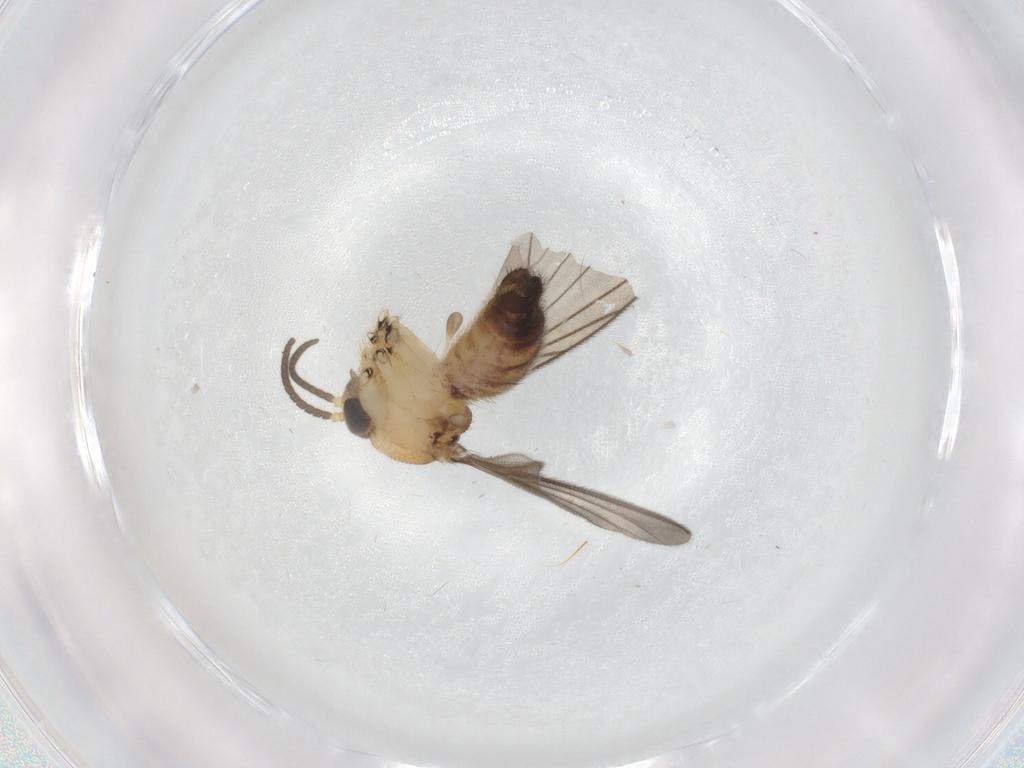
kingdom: Animalia
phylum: Arthropoda
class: Insecta
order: Diptera
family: Mycetophilidae
